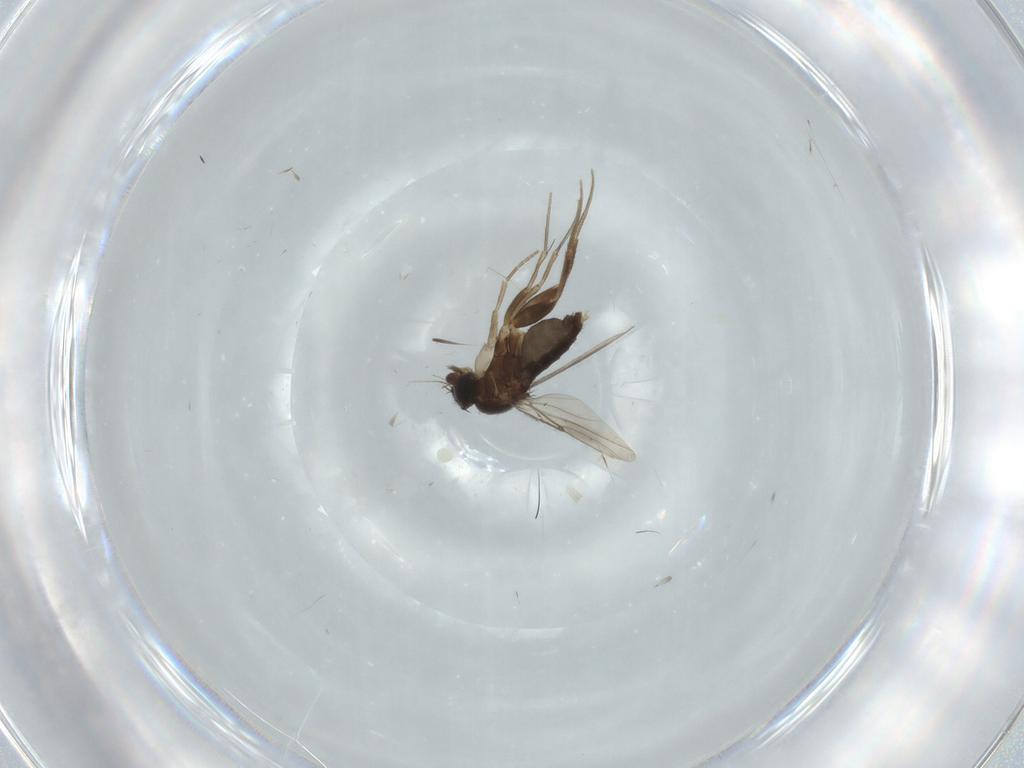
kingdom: Animalia
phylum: Arthropoda
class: Insecta
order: Diptera
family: Phoridae
